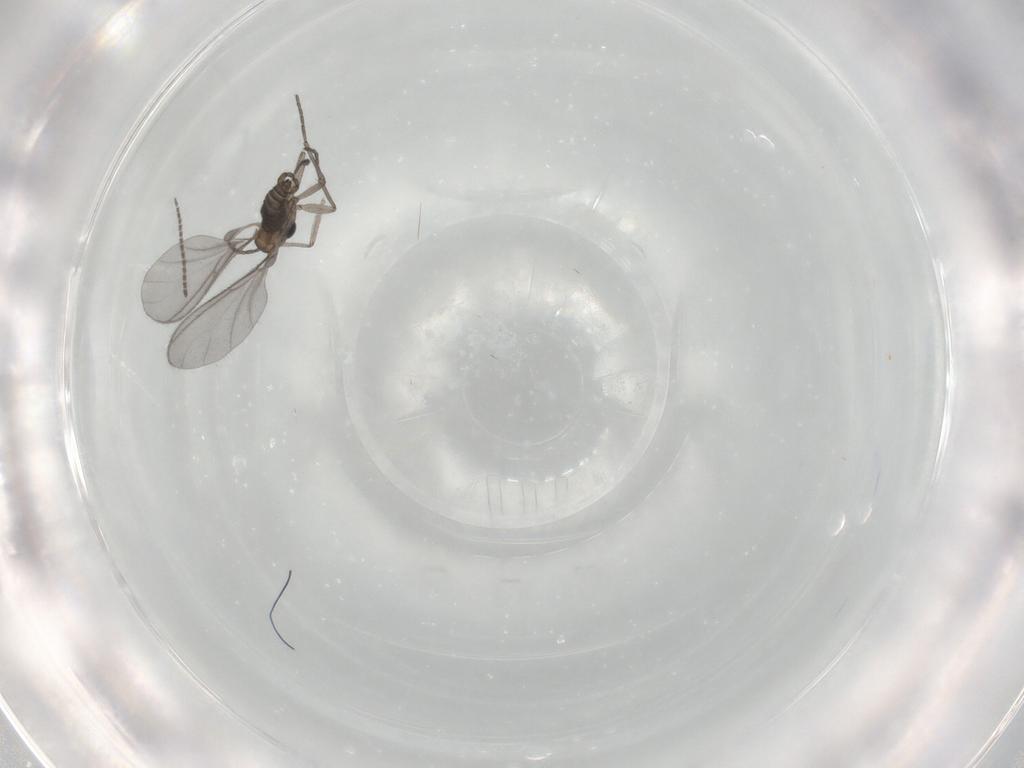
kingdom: Animalia
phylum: Arthropoda
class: Insecta
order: Diptera
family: Sciaridae
